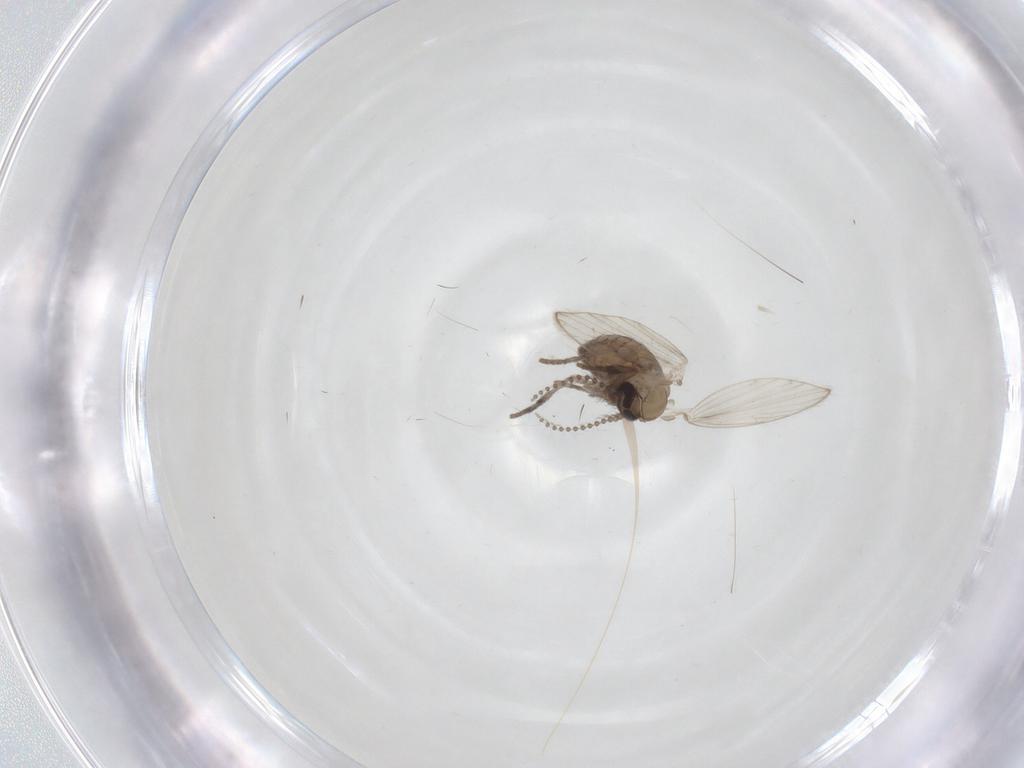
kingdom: Animalia
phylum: Arthropoda
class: Insecta
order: Diptera
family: Psychodidae
